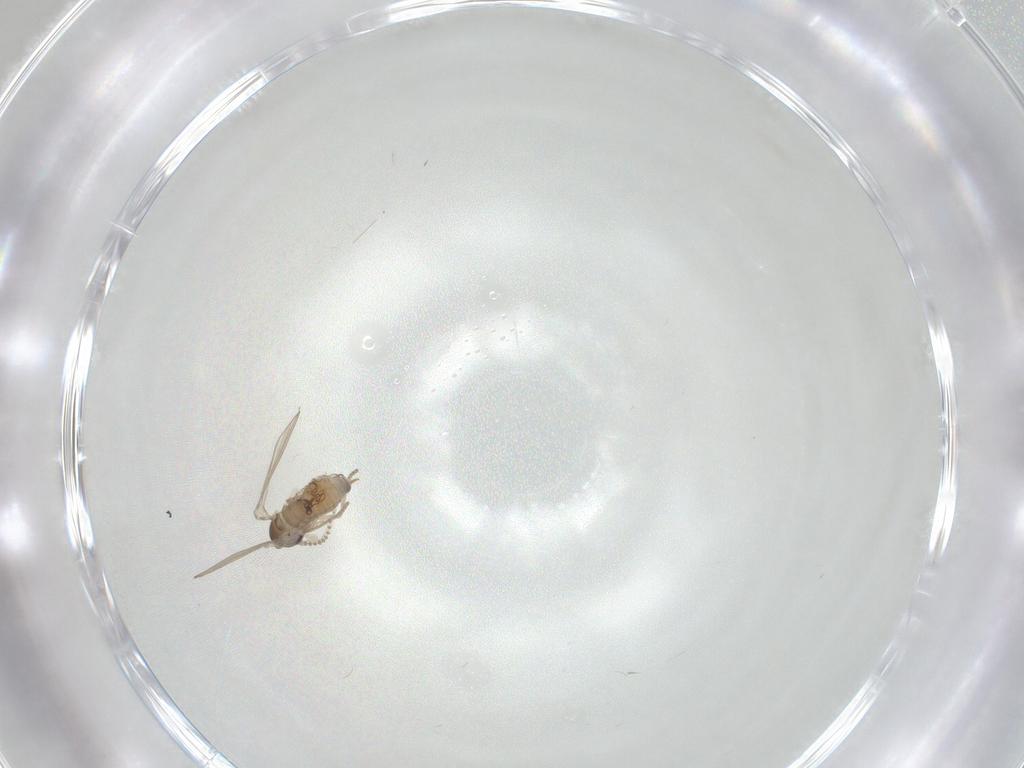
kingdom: Animalia
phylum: Arthropoda
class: Insecta
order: Diptera
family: Psychodidae
